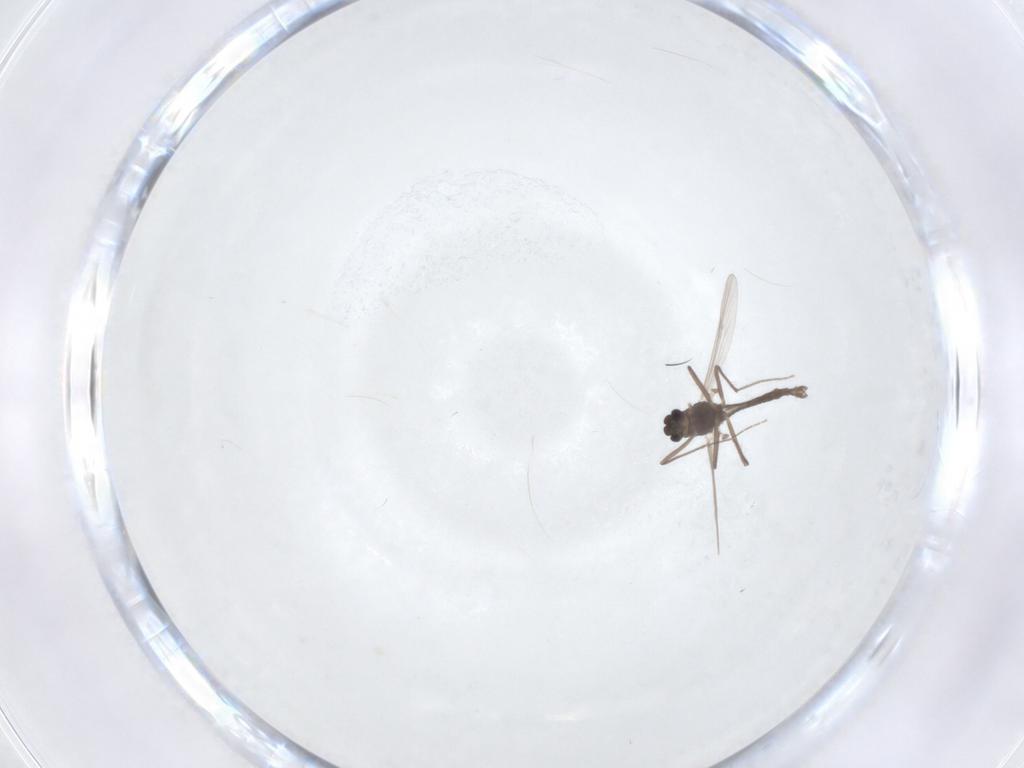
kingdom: Animalia
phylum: Arthropoda
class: Insecta
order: Diptera
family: Chironomidae
